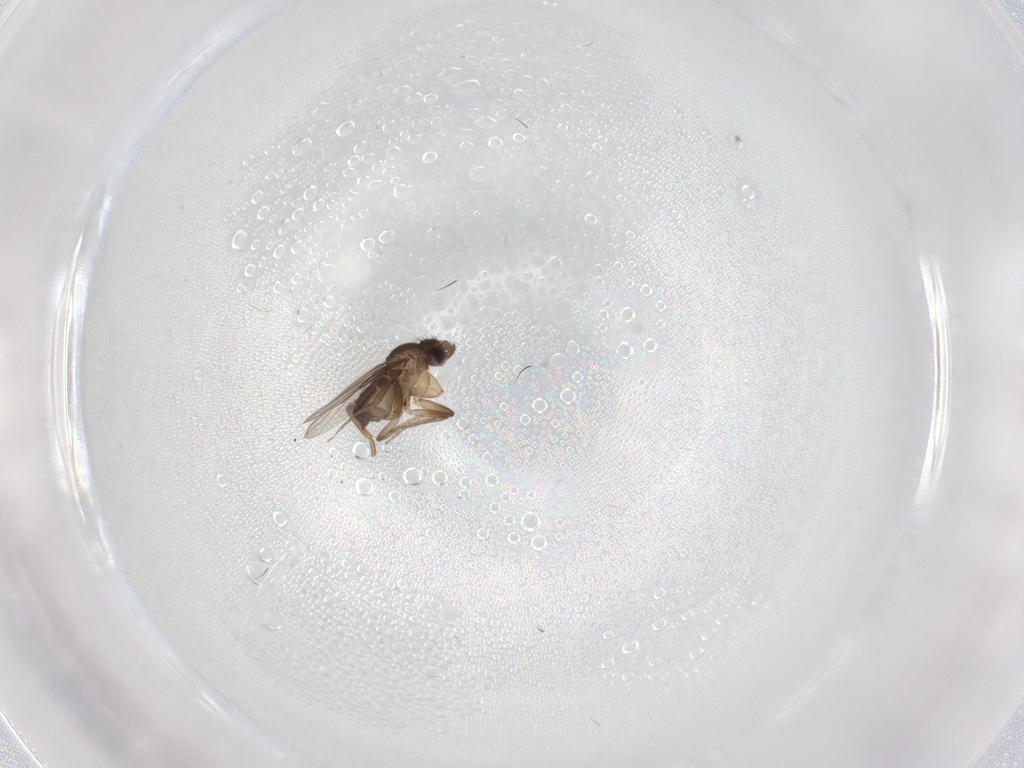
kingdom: Animalia
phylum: Arthropoda
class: Insecta
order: Diptera
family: Phoridae
